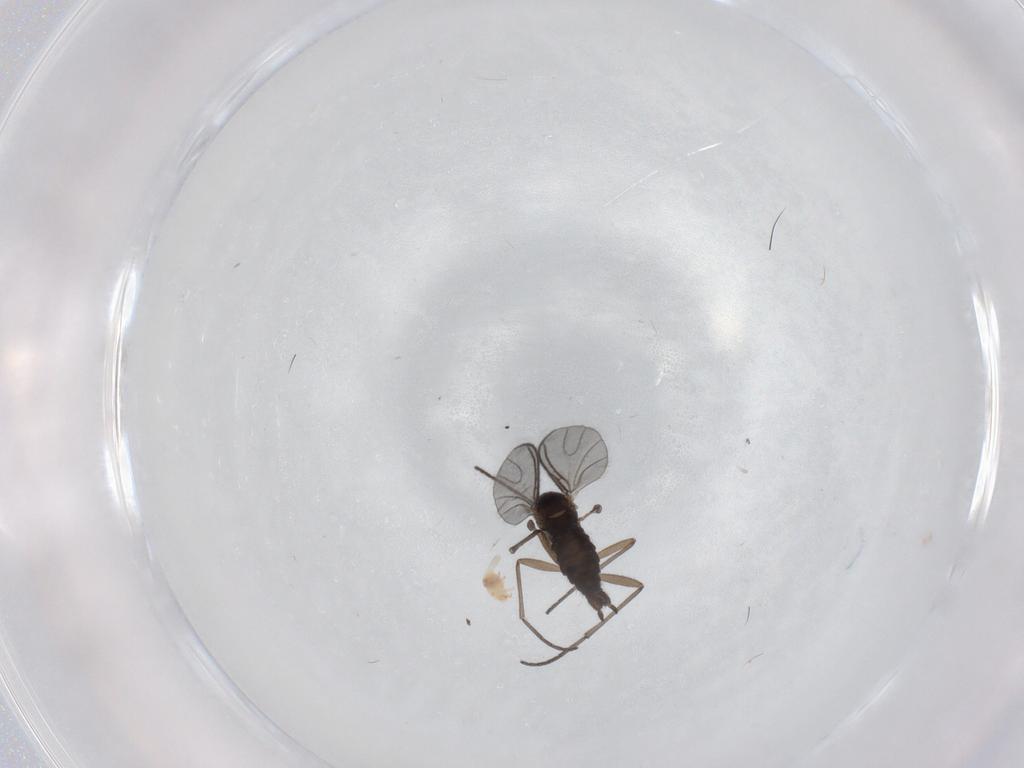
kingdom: Animalia
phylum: Arthropoda
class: Insecta
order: Diptera
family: Sciaridae
